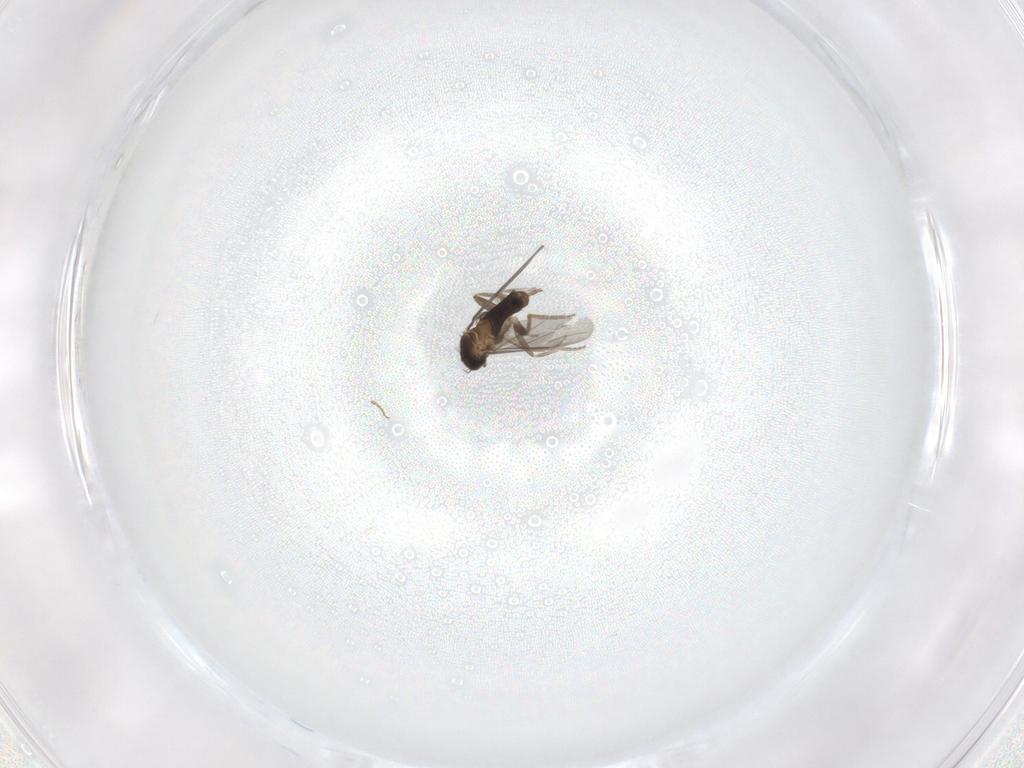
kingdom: Animalia
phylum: Arthropoda
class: Insecta
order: Diptera
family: Psychodidae
